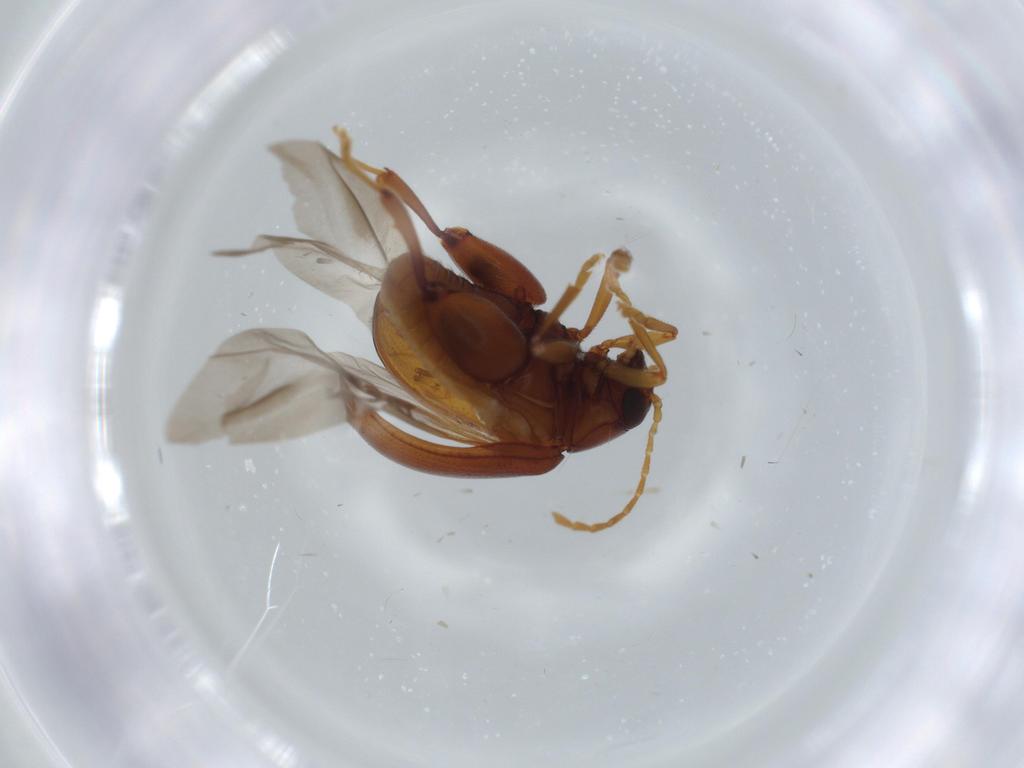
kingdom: Animalia
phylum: Arthropoda
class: Insecta
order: Coleoptera
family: Chrysomelidae
